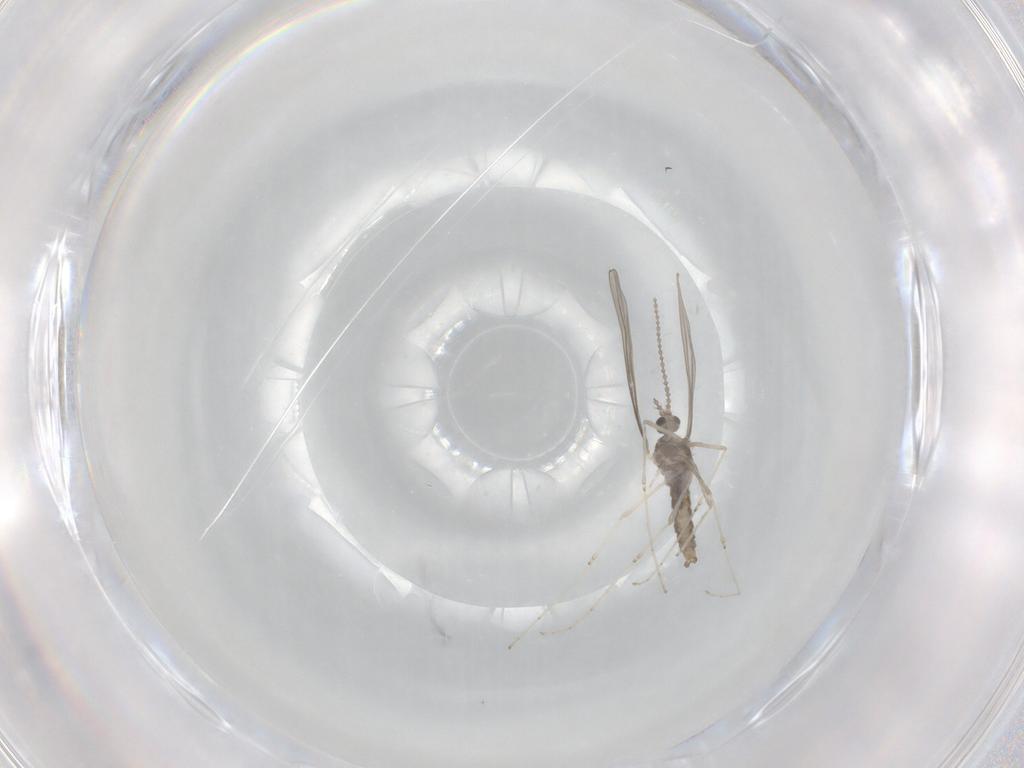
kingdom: Animalia
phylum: Arthropoda
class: Insecta
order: Diptera
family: Cecidomyiidae
